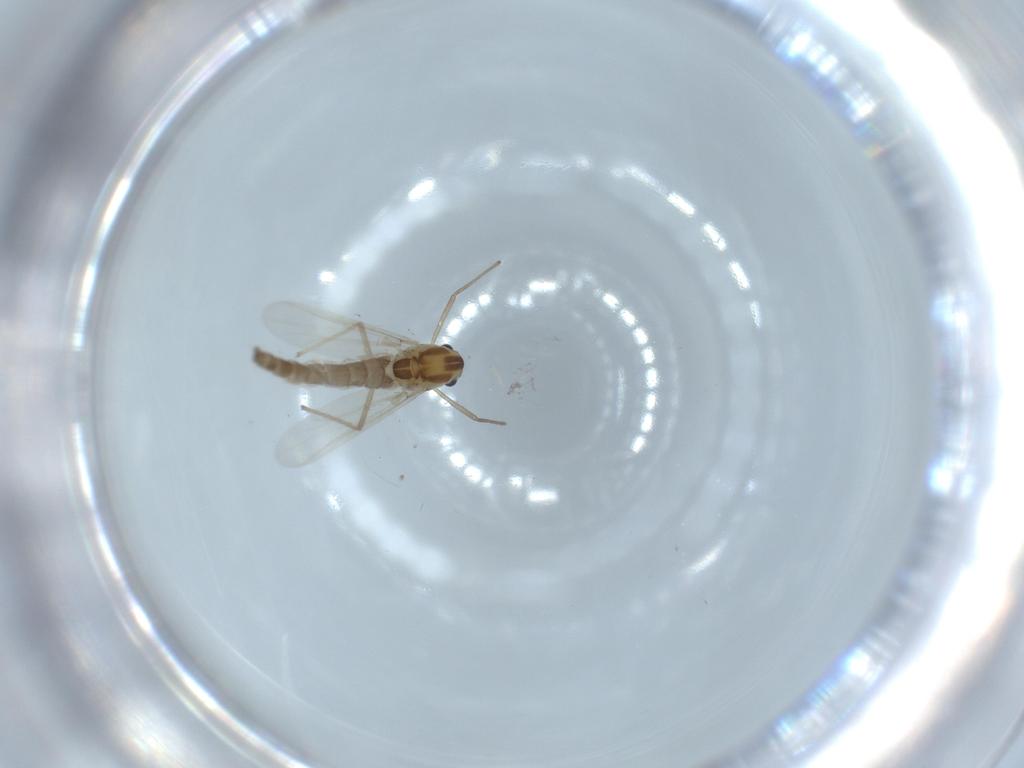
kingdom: Animalia
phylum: Arthropoda
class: Insecta
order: Diptera
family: Chironomidae
